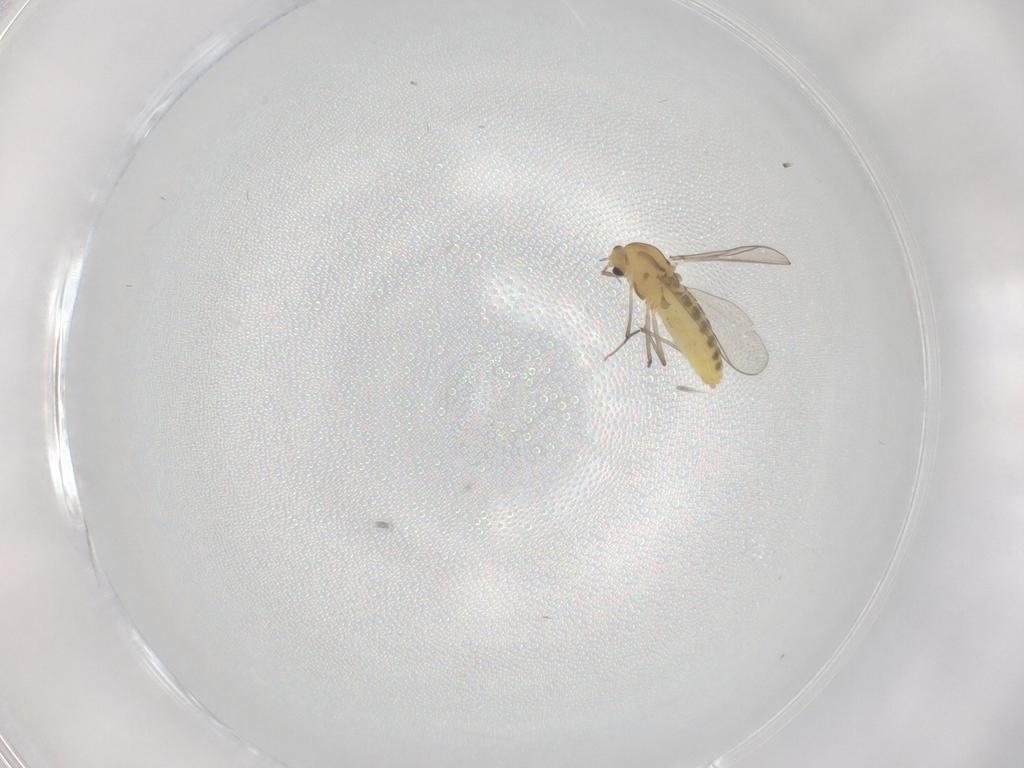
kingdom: Animalia
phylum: Arthropoda
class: Insecta
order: Diptera
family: Chironomidae
